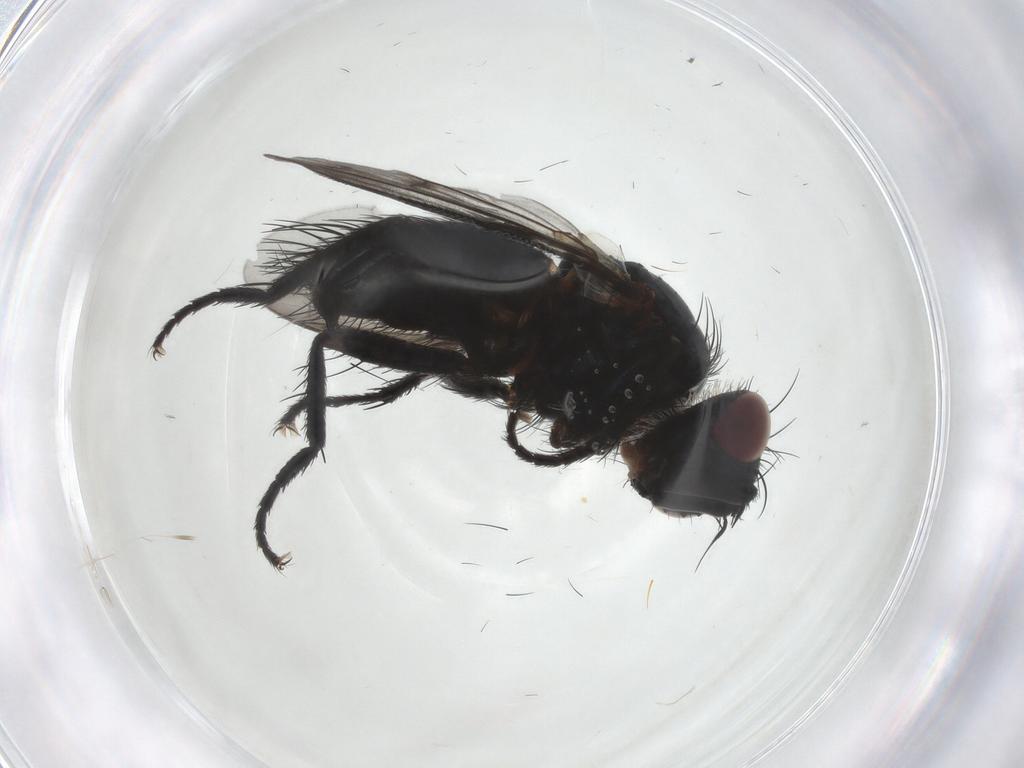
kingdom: Animalia
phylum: Arthropoda
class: Insecta
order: Diptera
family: Tachinidae
